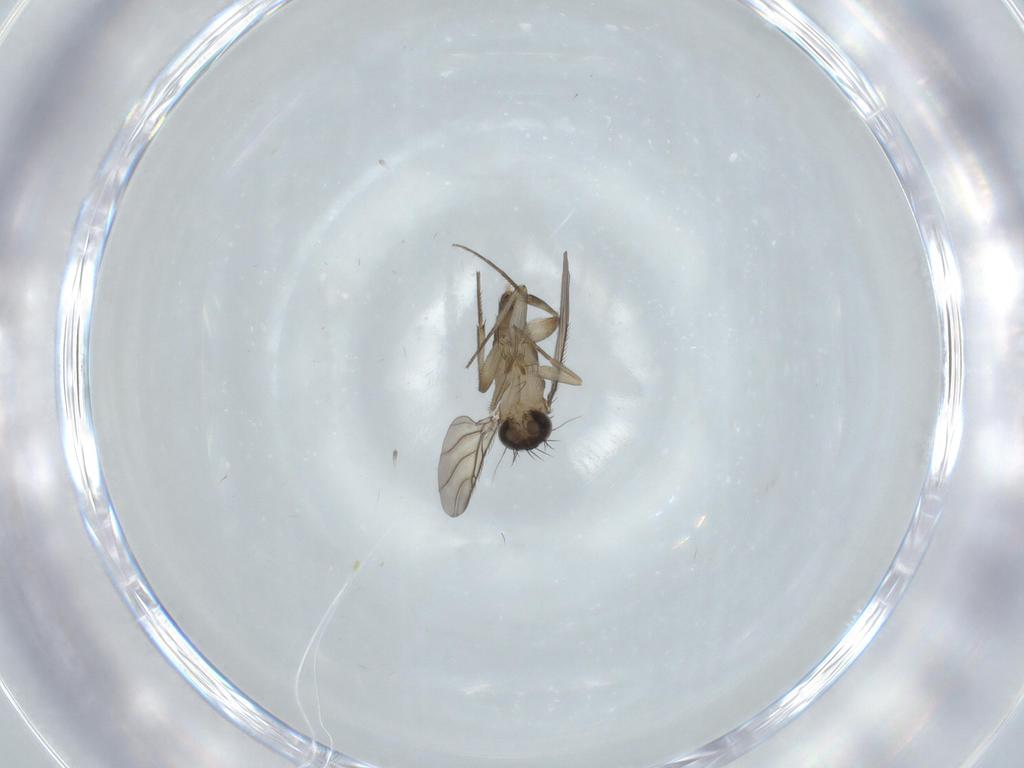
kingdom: Animalia
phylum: Arthropoda
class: Insecta
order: Diptera
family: Phoridae
